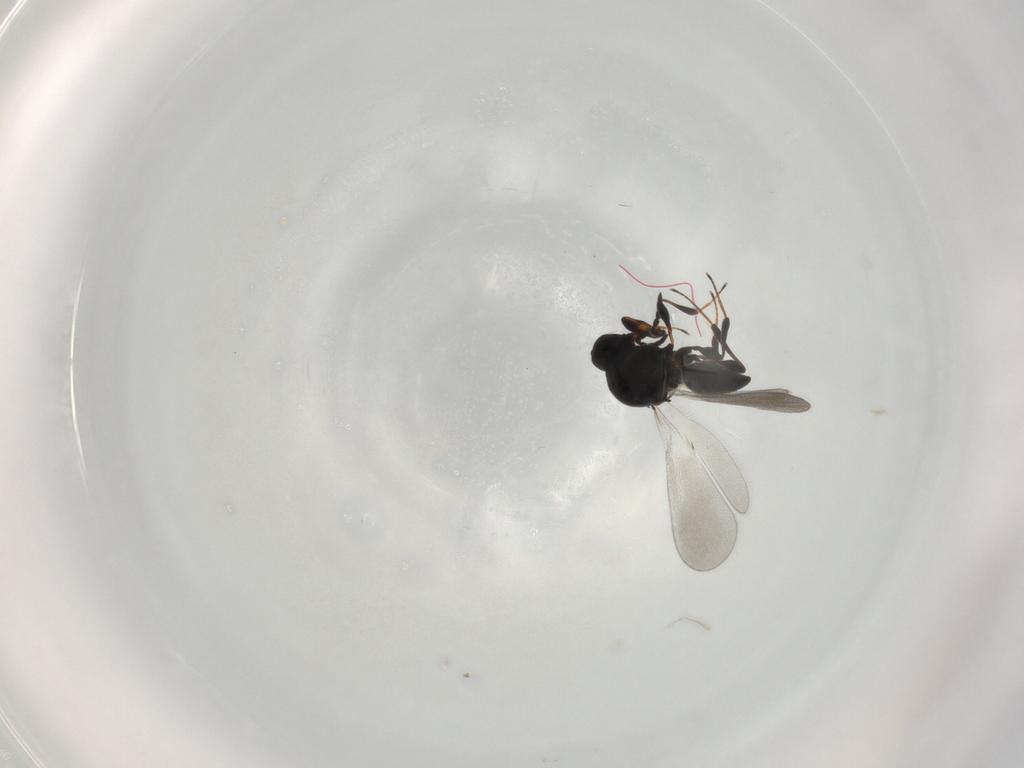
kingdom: Animalia
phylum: Arthropoda
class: Insecta
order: Hymenoptera
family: Platygastridae
